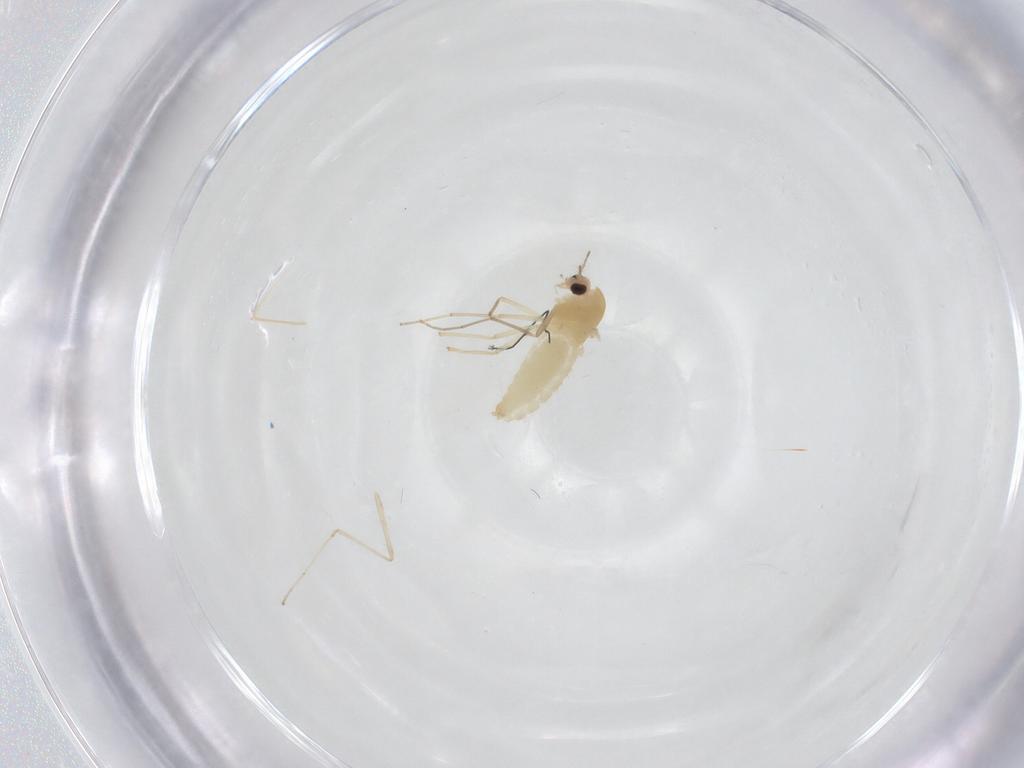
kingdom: Animalia
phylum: Arthropoda
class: Insecta
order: Diptera
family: Chironomidae
